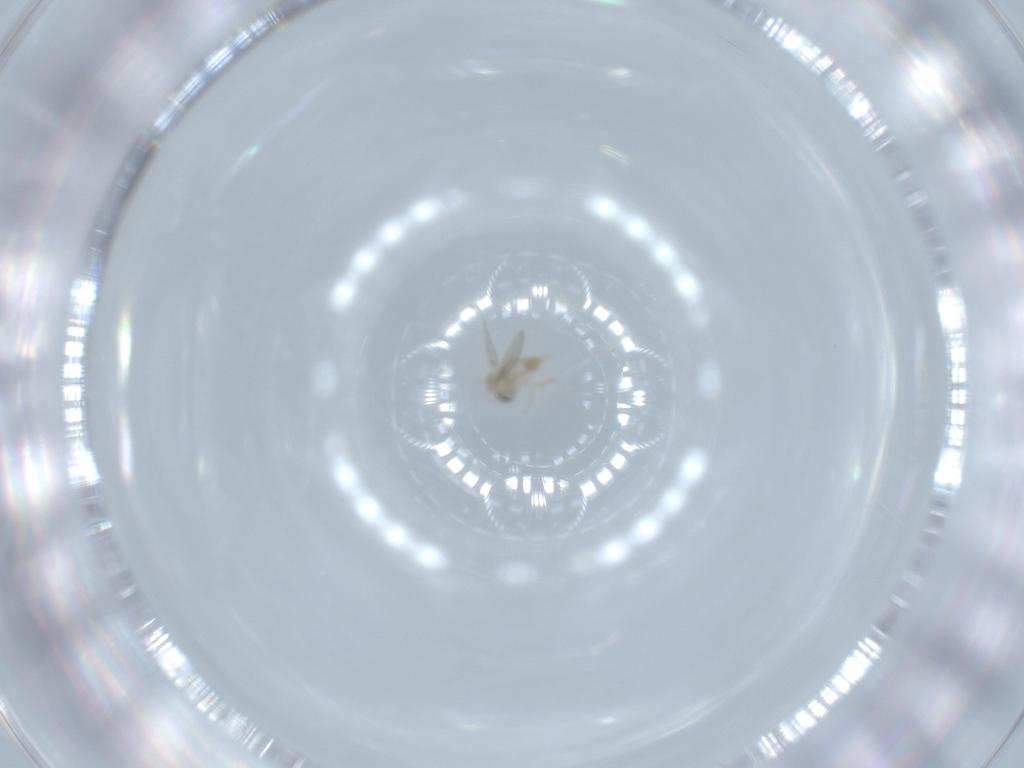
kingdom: Animalia
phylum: Arthropoda
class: Insecta
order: Diptera
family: Cecidomyiidae
